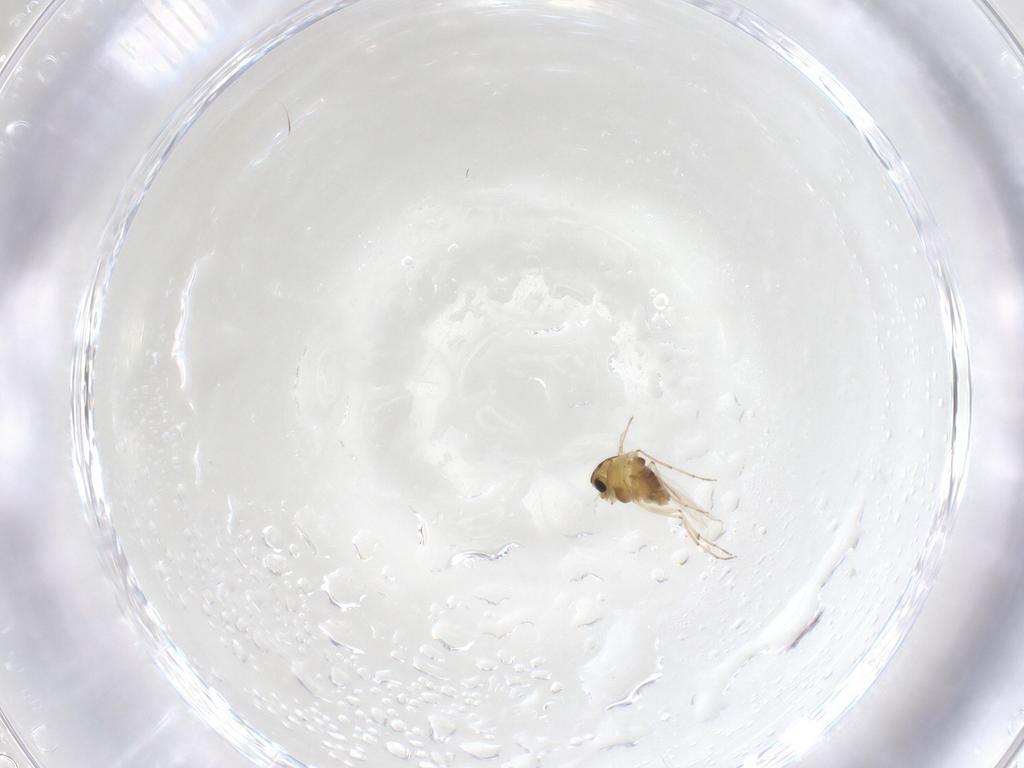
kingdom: Animalia
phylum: Arthropoda
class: Insecta
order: Diptera
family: Chironomidae
